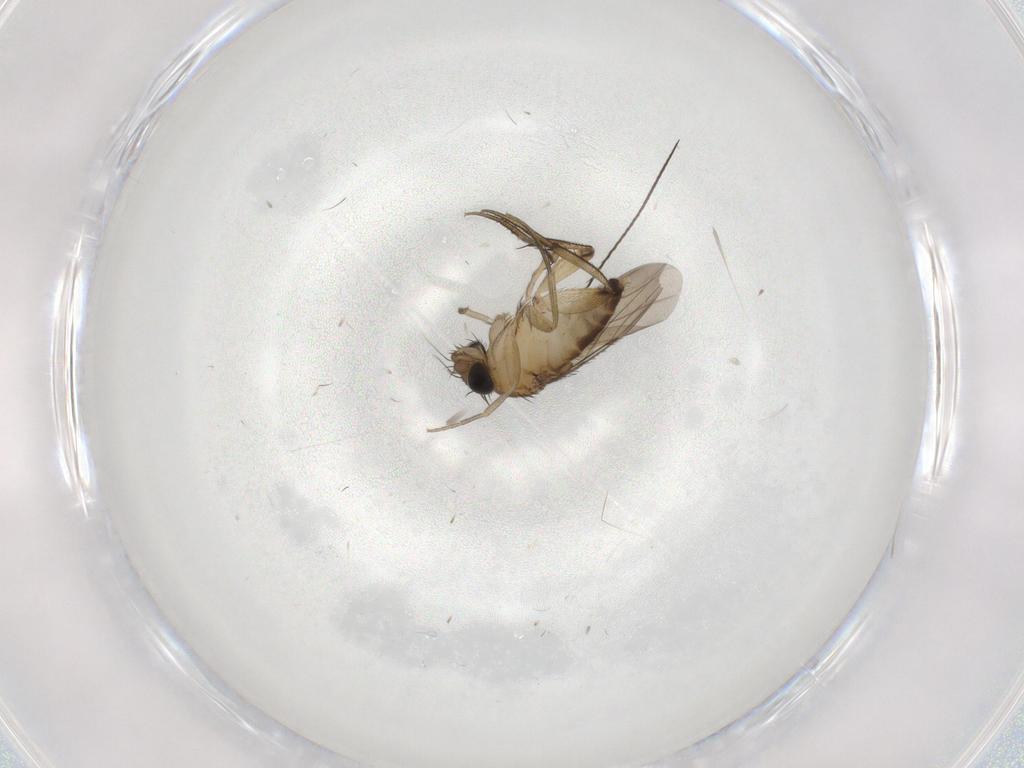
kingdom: Animalia
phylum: Arthropoda
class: Insecta
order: Diptera
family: Phoridae
